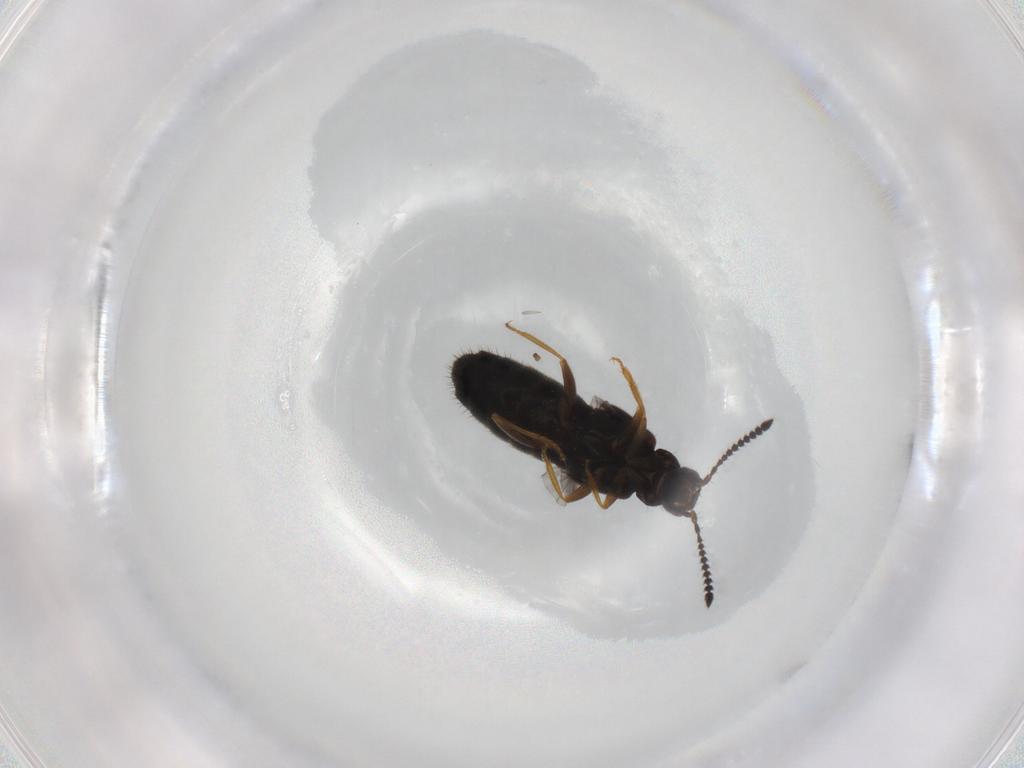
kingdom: Animalia
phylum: Arthropoda
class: Insecta
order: Coleoptera
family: Staphylinidae
